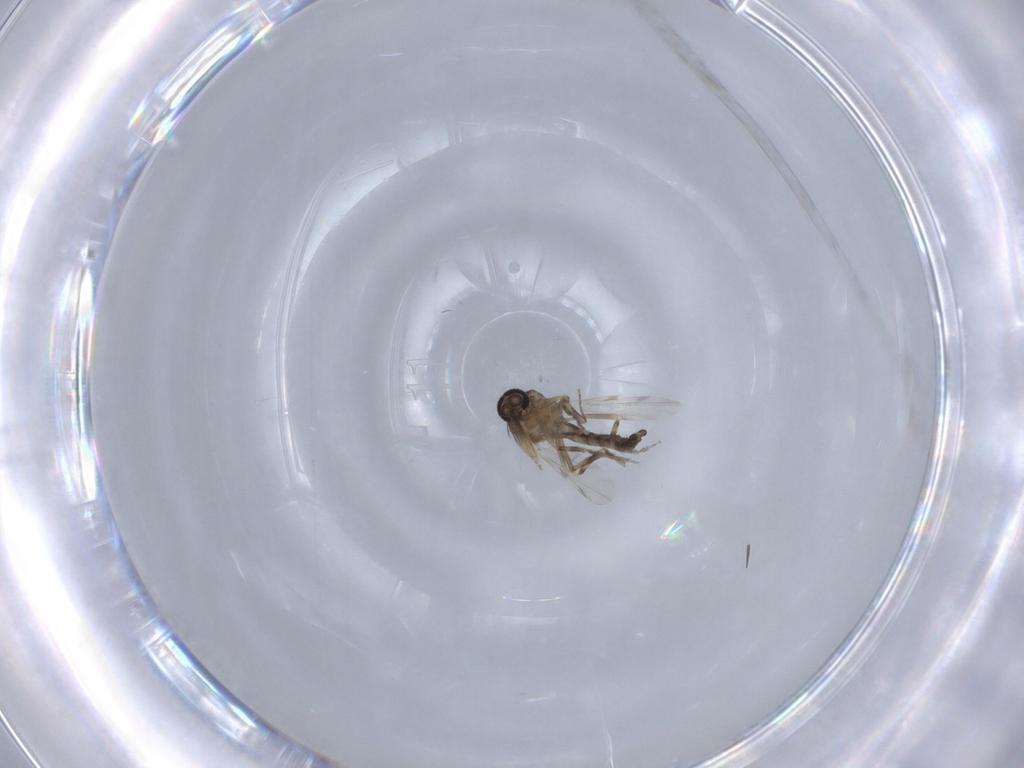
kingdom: Animalia
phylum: Arthropoda
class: Insecta
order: Diptera
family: Ceratopogonidae
